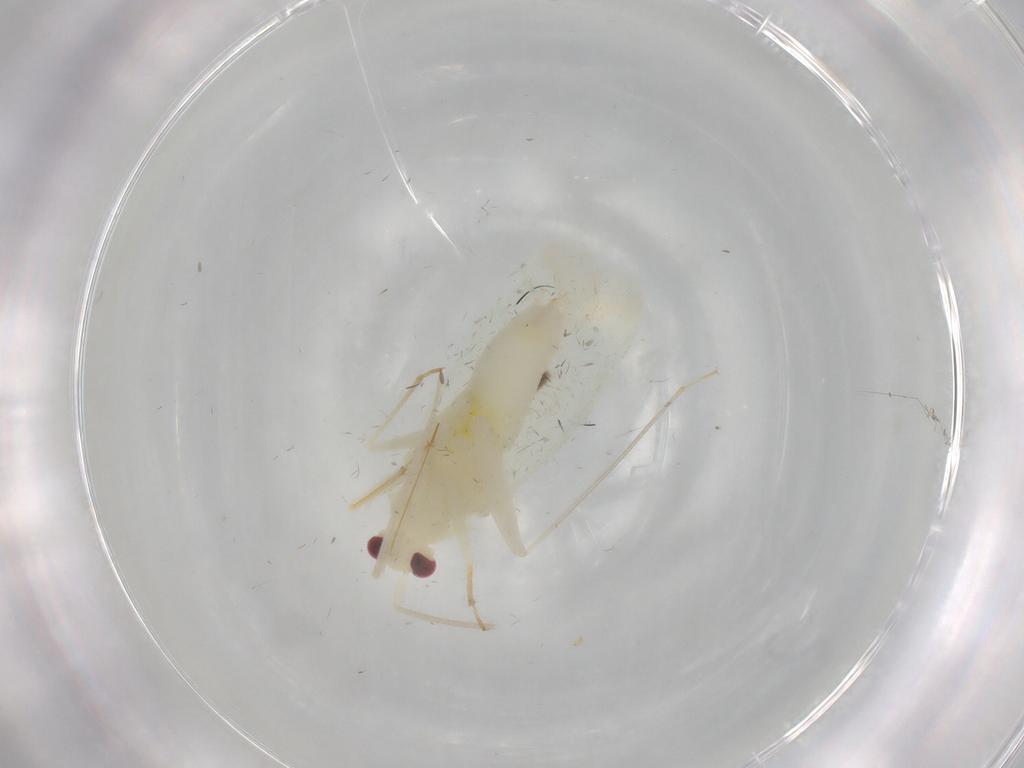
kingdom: Animalia
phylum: Arthropoda
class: Insecta
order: Hemiptera
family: Miridae
